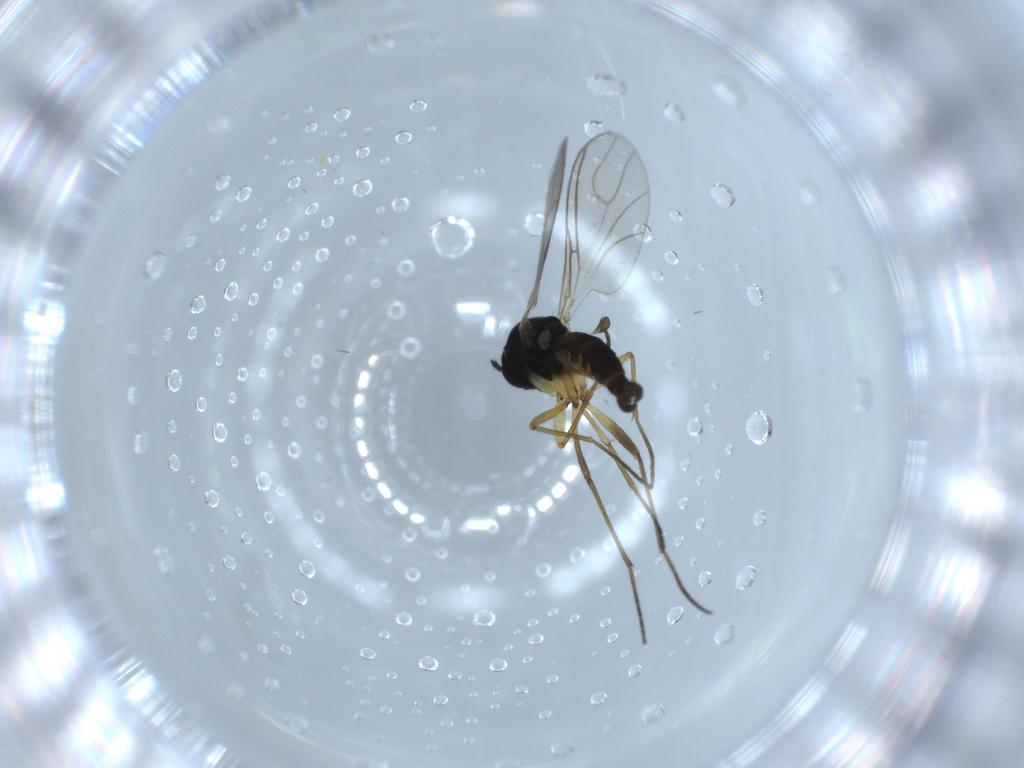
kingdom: Animalia
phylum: Arthropoda
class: Insecta
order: Diptera
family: Sciaridae
